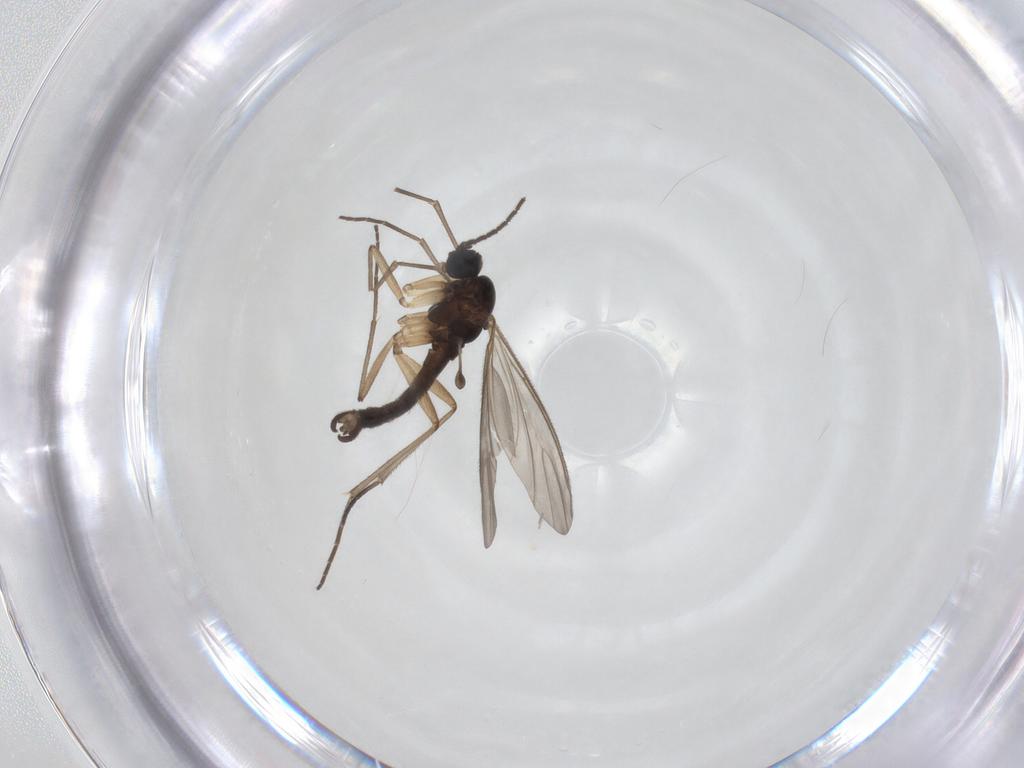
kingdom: Animalia
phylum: Arthropoda
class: Insecta
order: Diptera
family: Sciaridae
